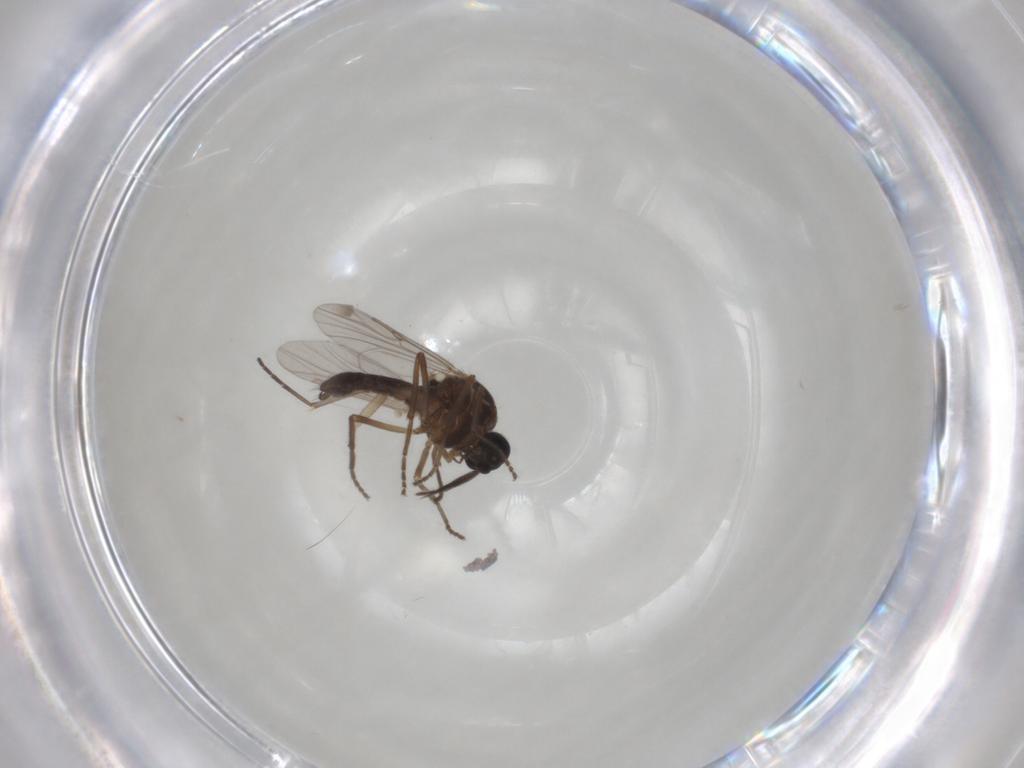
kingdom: Animalia
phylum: Arthropoda
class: Insecta
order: Diptera
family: Ceratopogonidae
